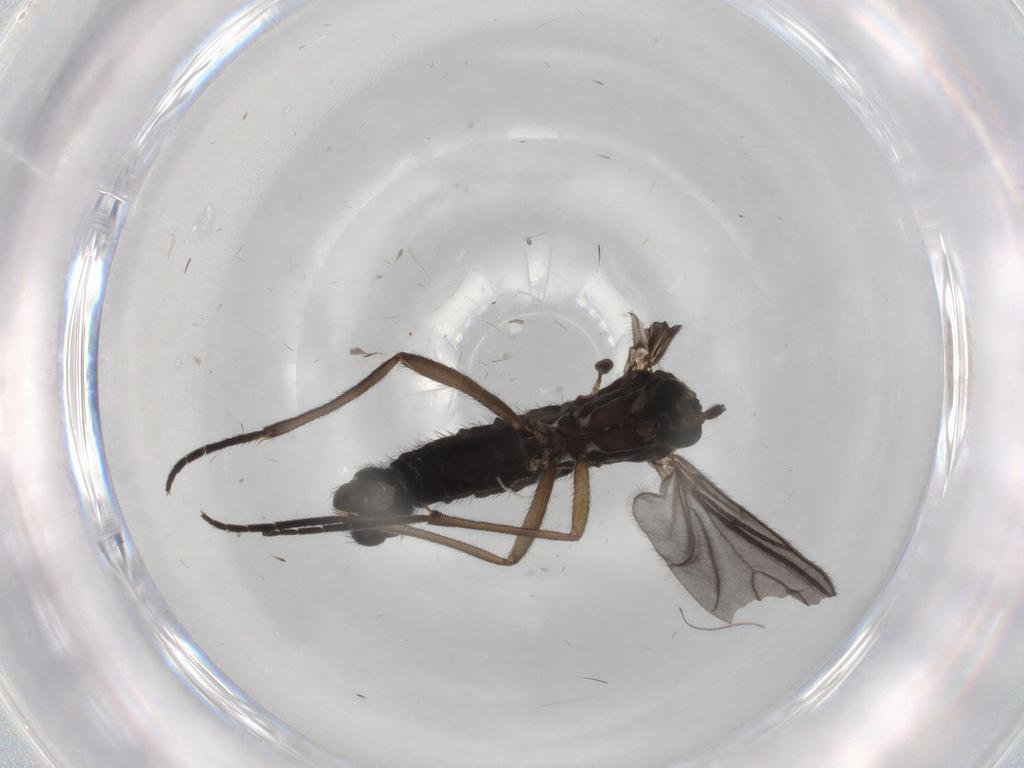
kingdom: Animalia
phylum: Arthropoda
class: Insecta
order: Diptera
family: Sciaridae
